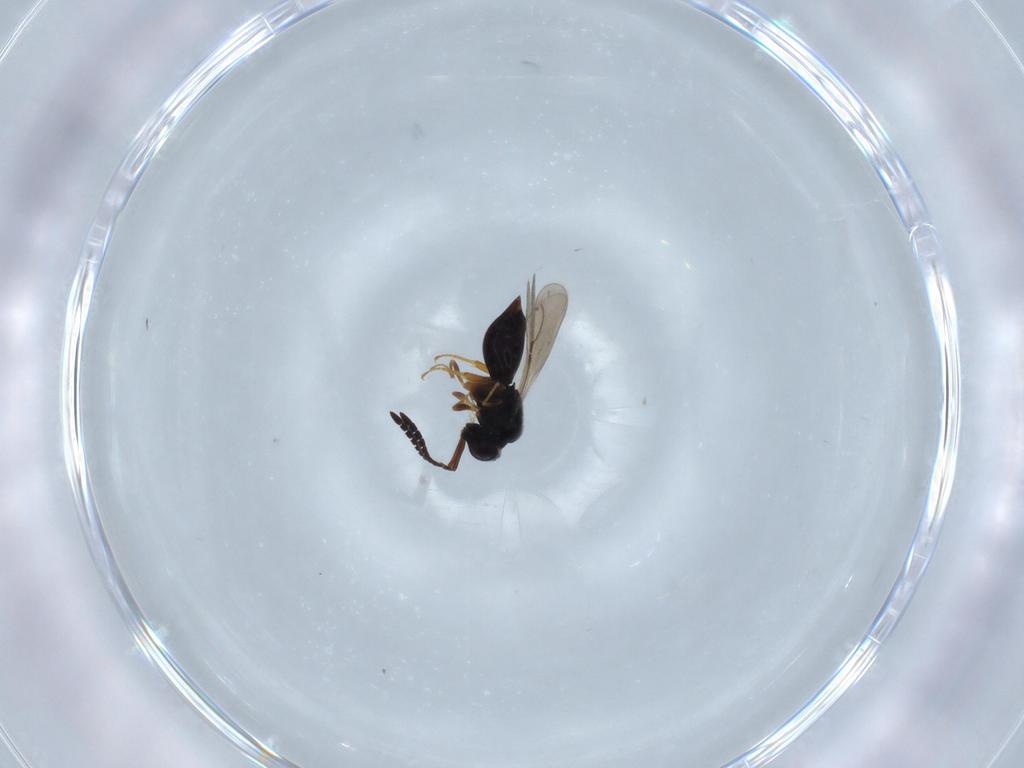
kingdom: Animalia
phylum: Arthropoda
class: Insecta
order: Hymenoptera
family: Ceraphronidae
